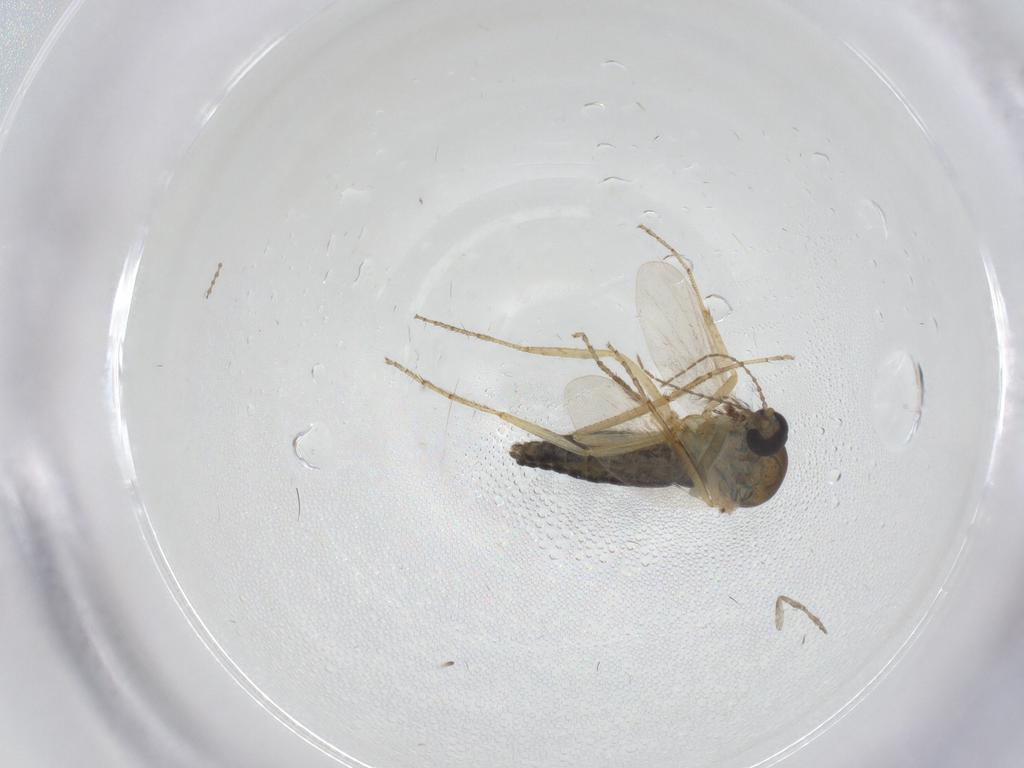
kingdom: Animalia
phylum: Arthropoda
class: Insecta
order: Diptera
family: Ceratopogonidae
